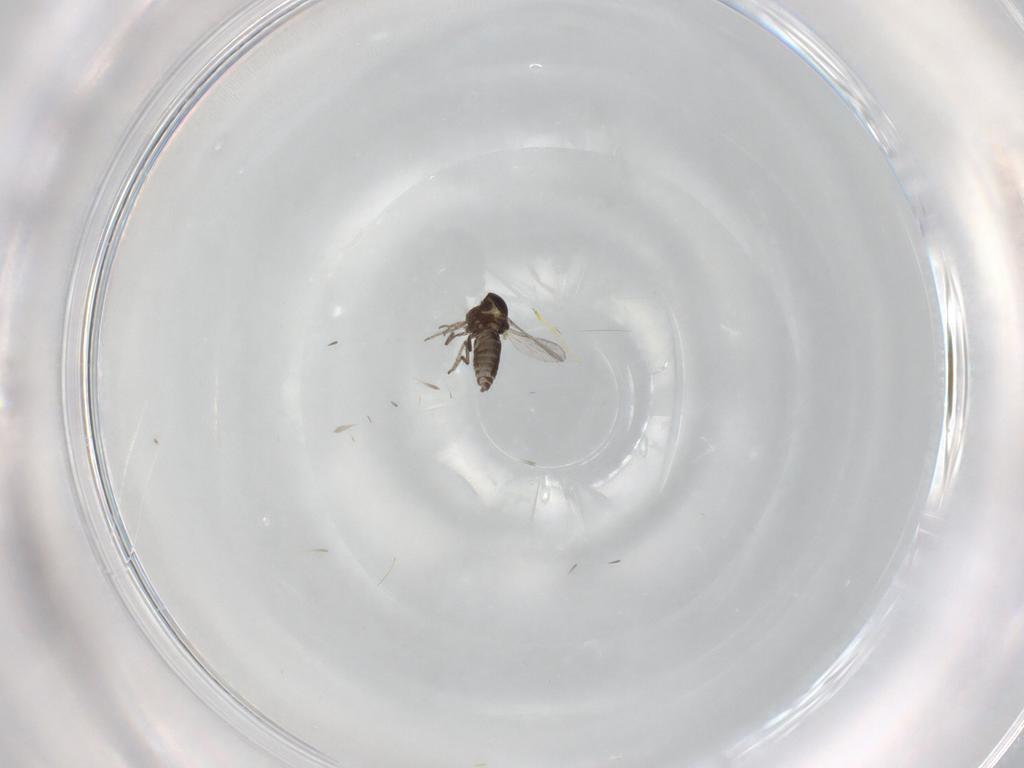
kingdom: Animalia
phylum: Arthropoda
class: Insecta
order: Diptera
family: Ceratopogonidae
